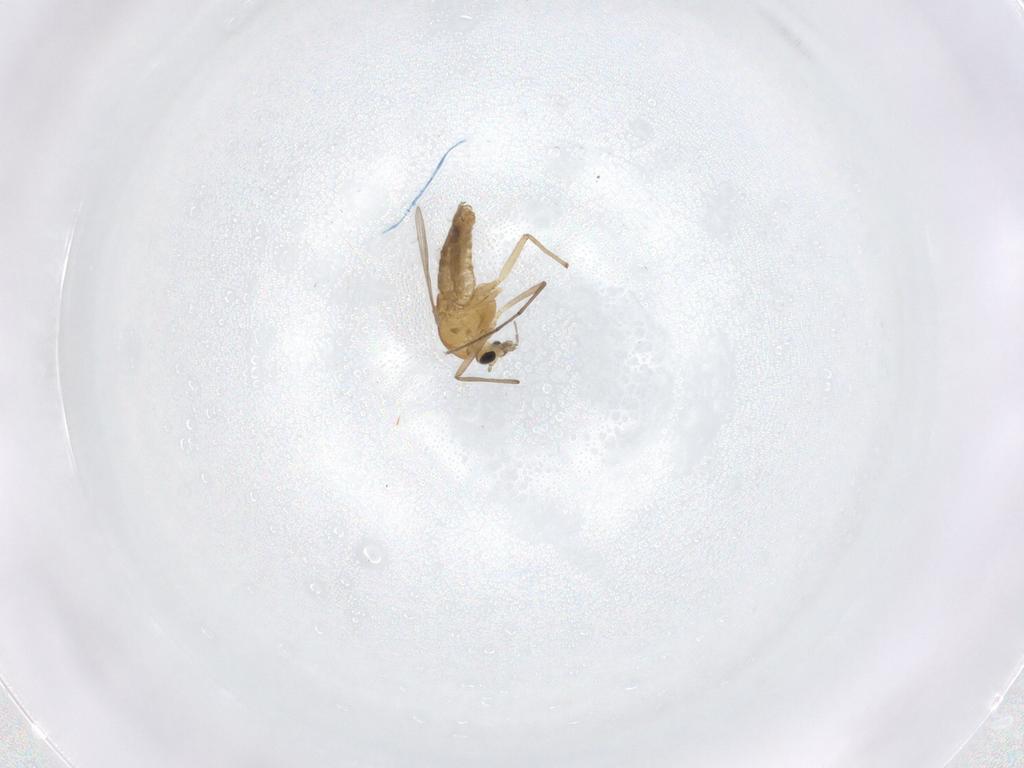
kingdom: Animalia
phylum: Arthropoda
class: Insecta
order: Diptera
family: Chironomidae
